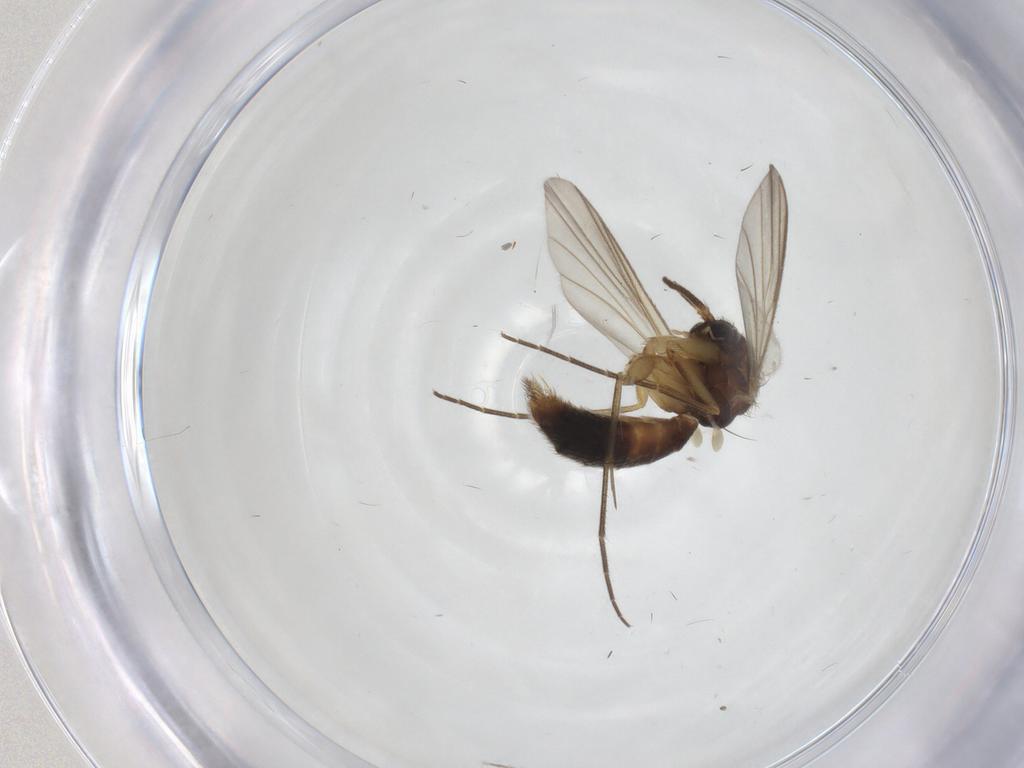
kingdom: Animalia
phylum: Arthropoda
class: Insecta
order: Diptera
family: Mycetophilidae
